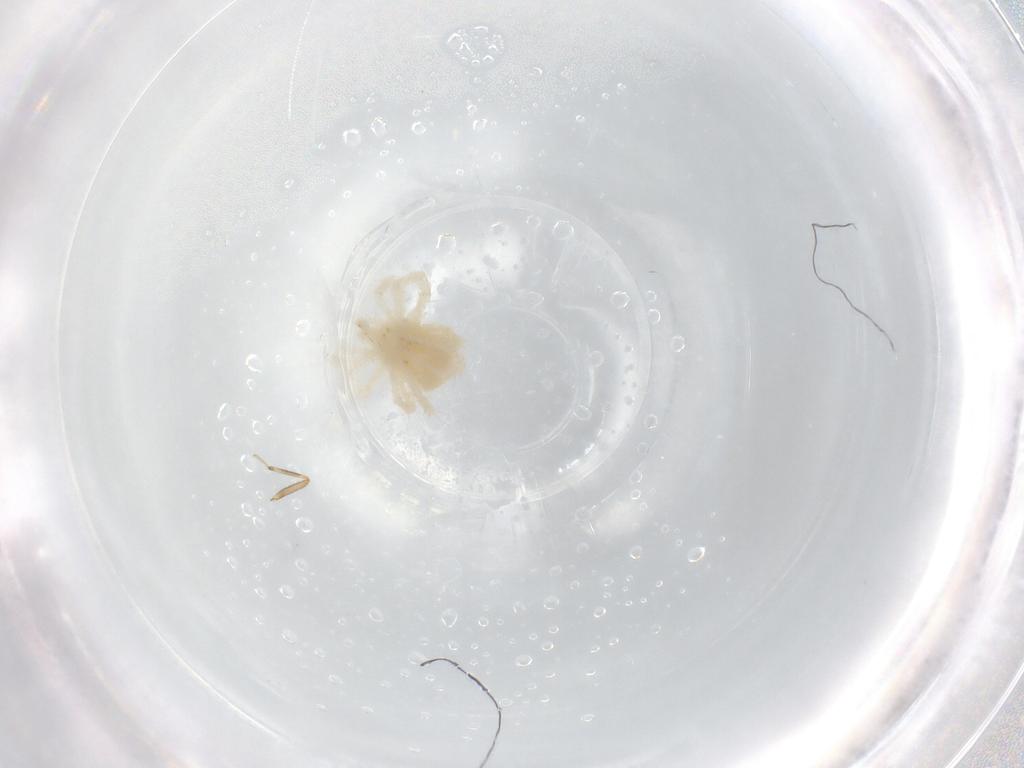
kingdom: Animalia
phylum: Arthropoda
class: Arachnida
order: Trombidiformes
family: Anystidae
